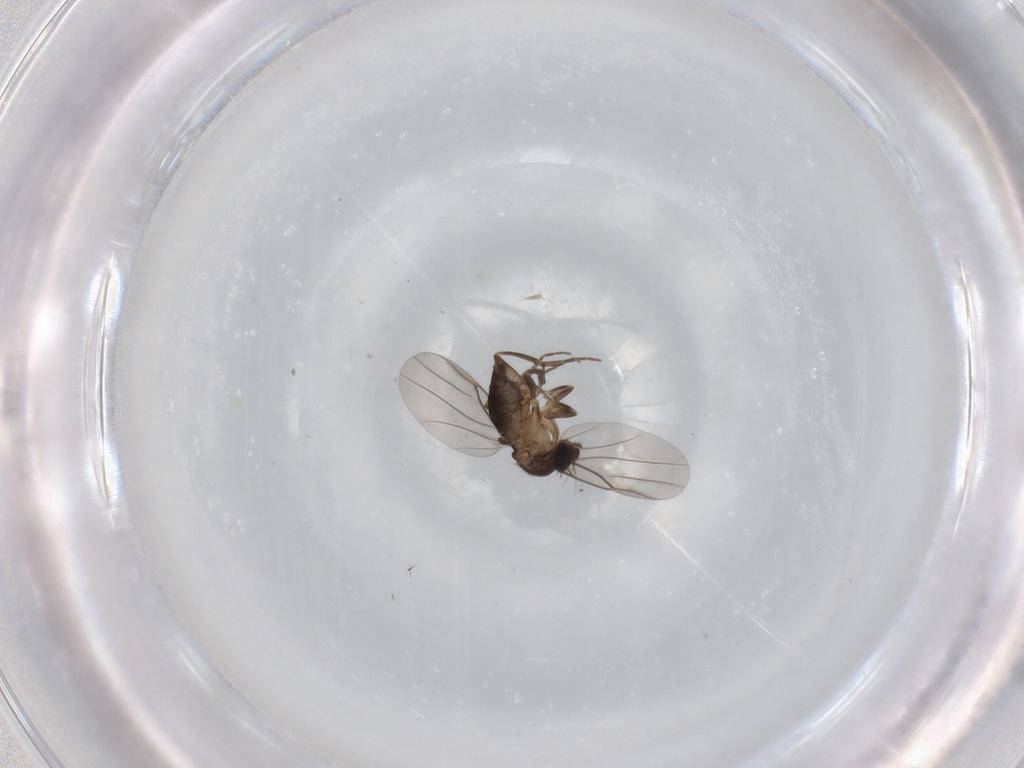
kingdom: Animalia
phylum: Arthropoda
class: Insecta
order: Diptera
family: Phoridae
